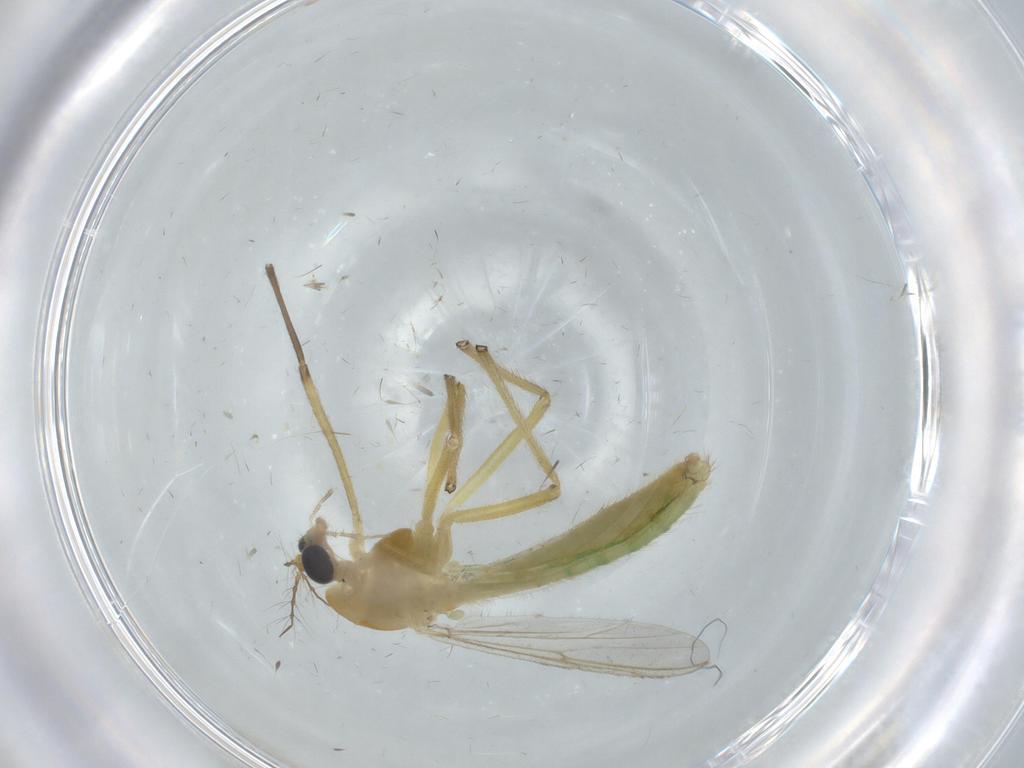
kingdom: Animalia
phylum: Arthropoda
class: Insecta
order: Diptera
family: Chironomidae
